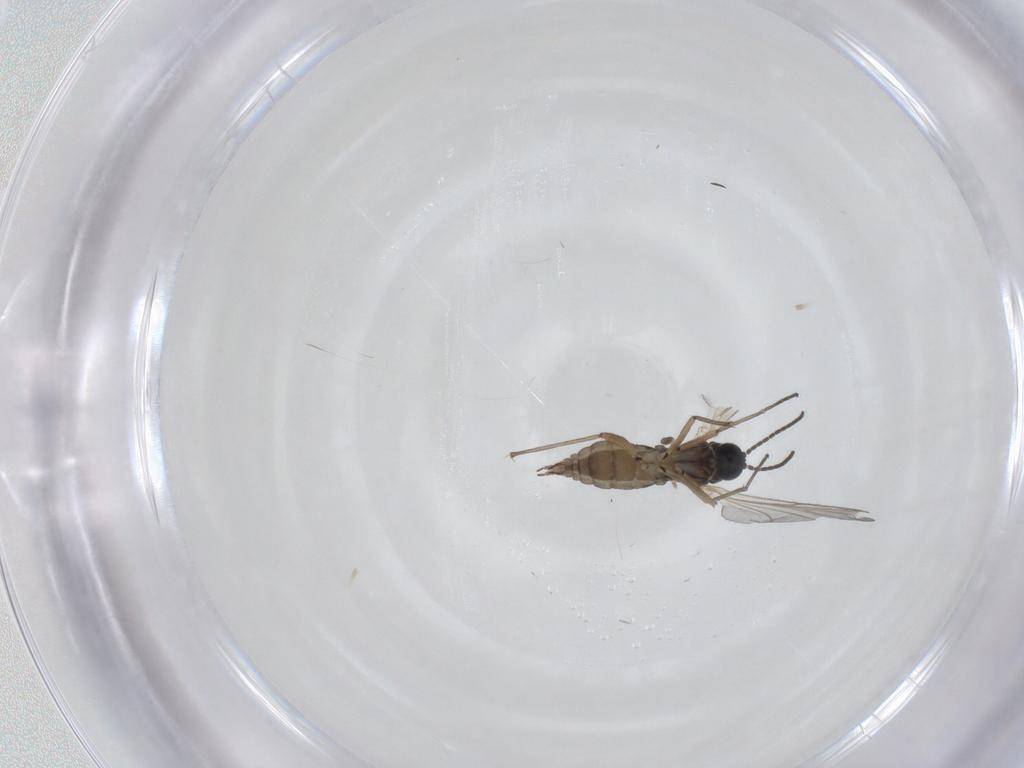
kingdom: Animalia
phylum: Arthropoda
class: Insecta
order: Diptera
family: Sciaridae
